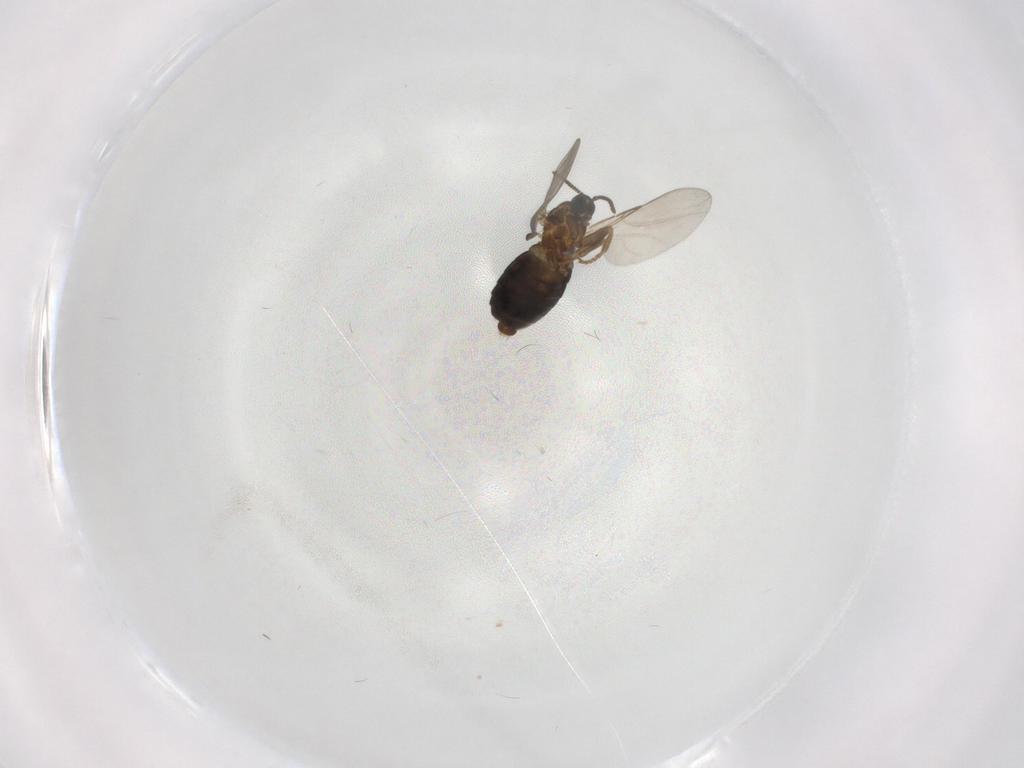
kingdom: Animalia
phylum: Arthropoda
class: Insecta
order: Diptera
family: Scatopsidae
